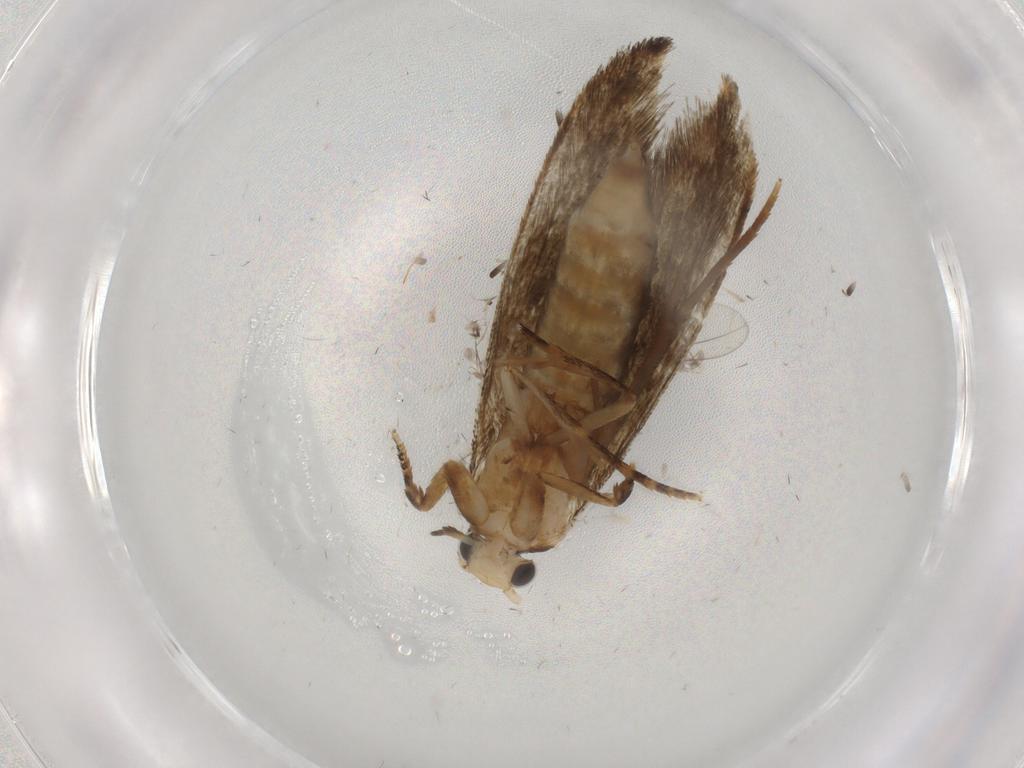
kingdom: Animalia
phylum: Arthropoda
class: Insecta
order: Lepidoptera
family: Tineidae
